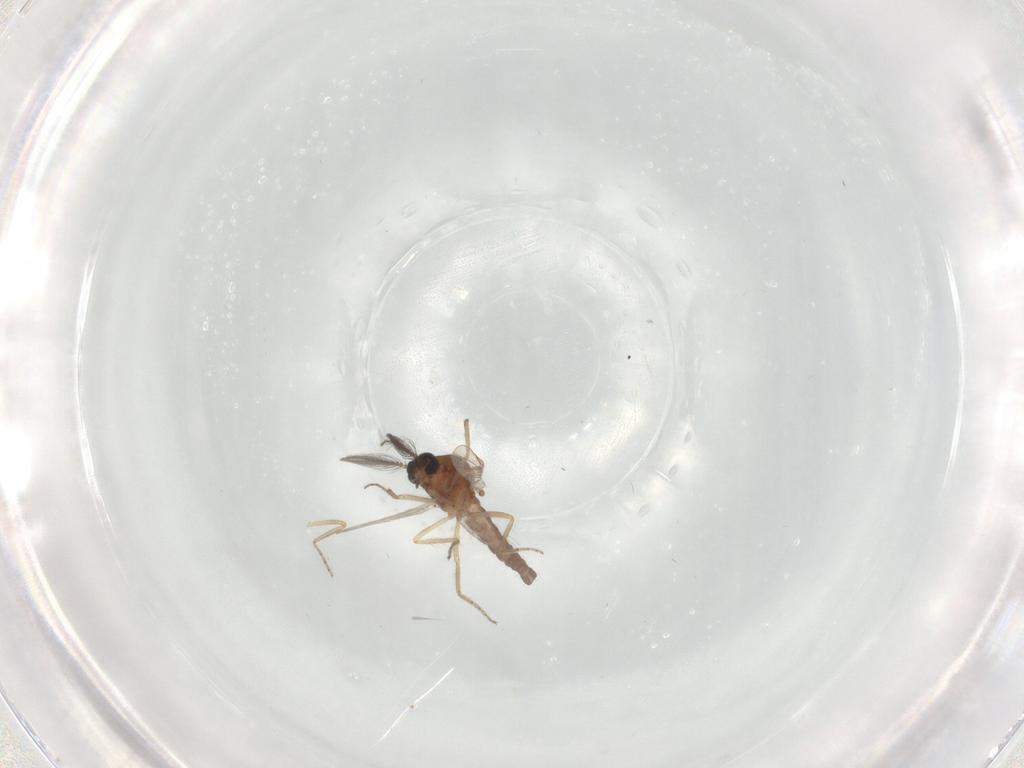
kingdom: Animalia
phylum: Arthropoda
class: Insecta
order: Diptera
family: Ceratopogonidae
